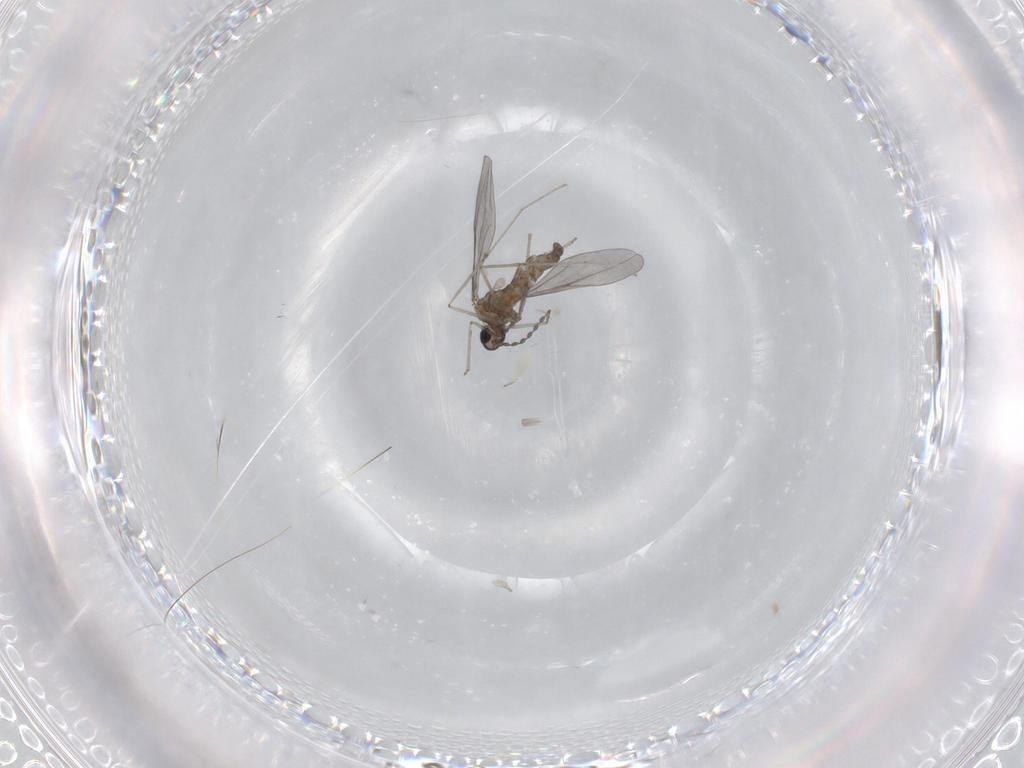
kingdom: Animalia
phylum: Arthropoda
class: Insecta
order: Diptera
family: Cecidomyiidae
